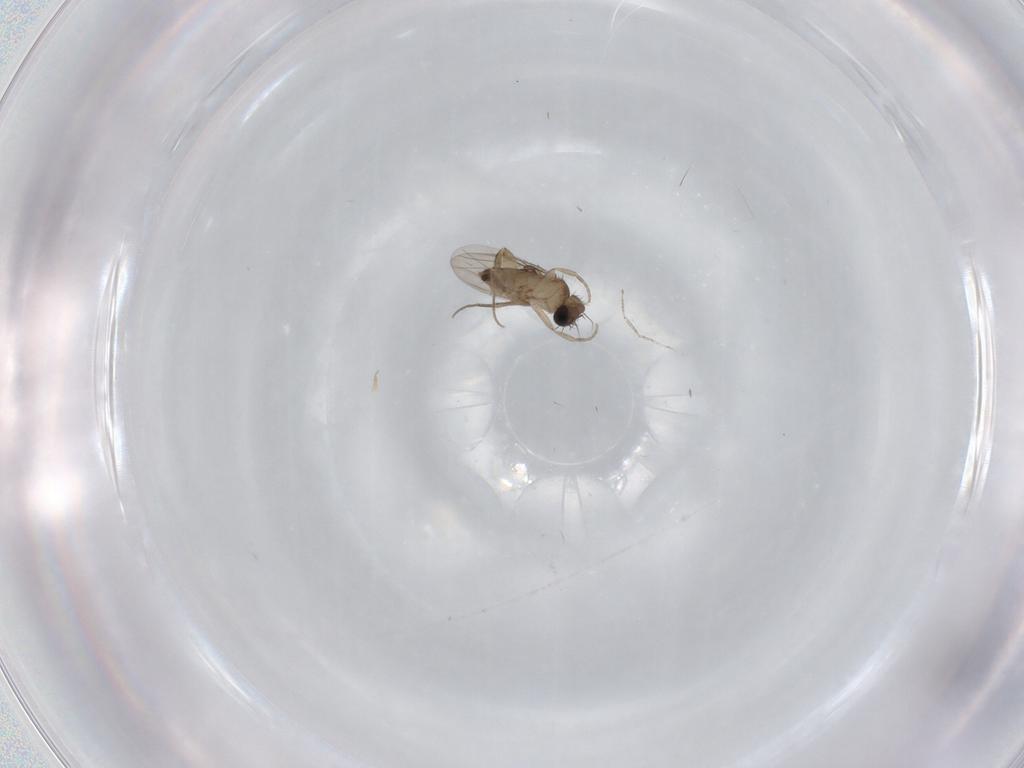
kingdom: Animalia
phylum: Arthropoda
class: Insecta
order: Diptera
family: Phoridae
